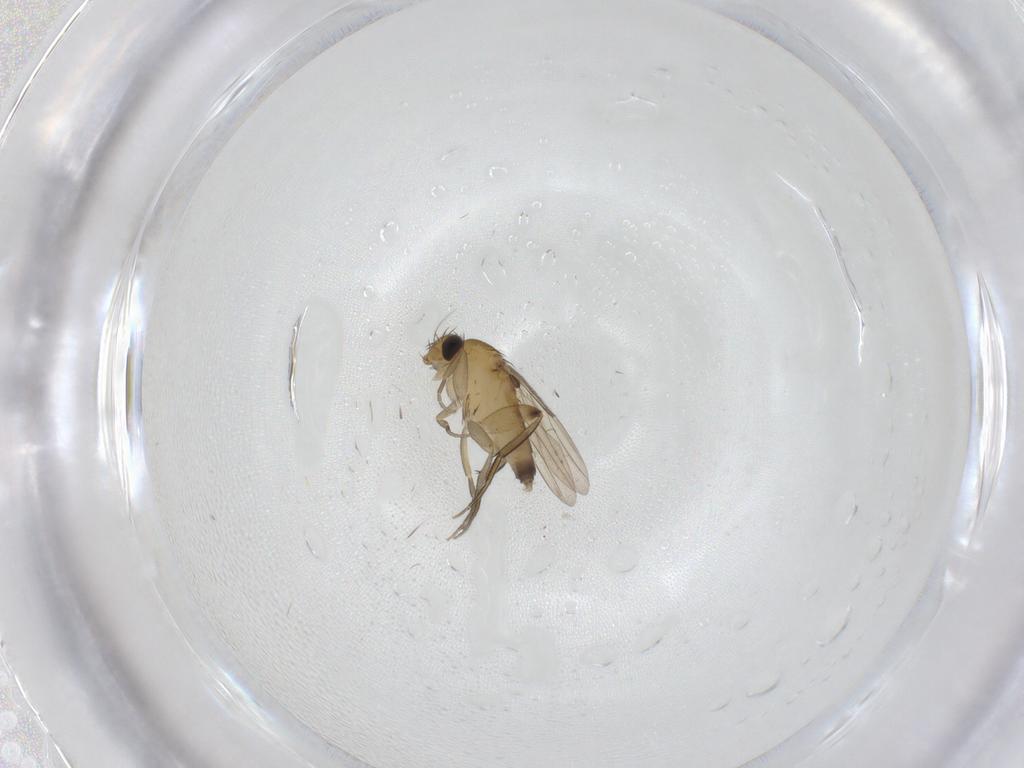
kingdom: Animalia
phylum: Arthropoda
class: Insecta
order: Diptera
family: Phoridae
